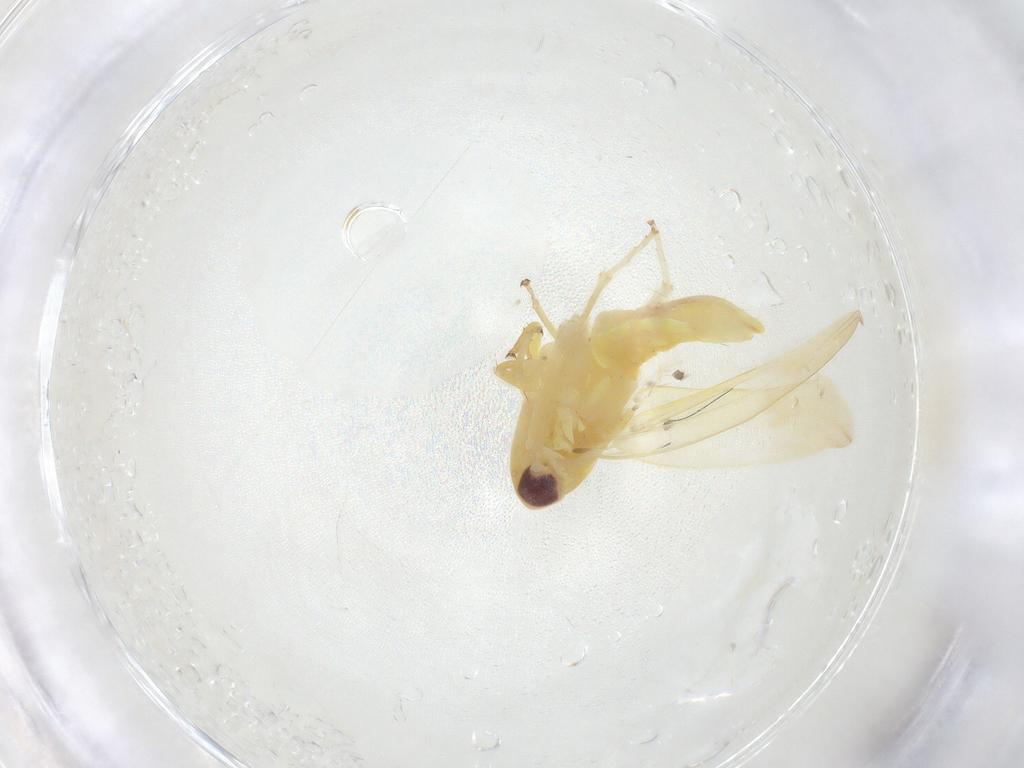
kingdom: Animalia
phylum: Arthropoda
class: Insecta
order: Hemiptera
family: Cicadellidae
